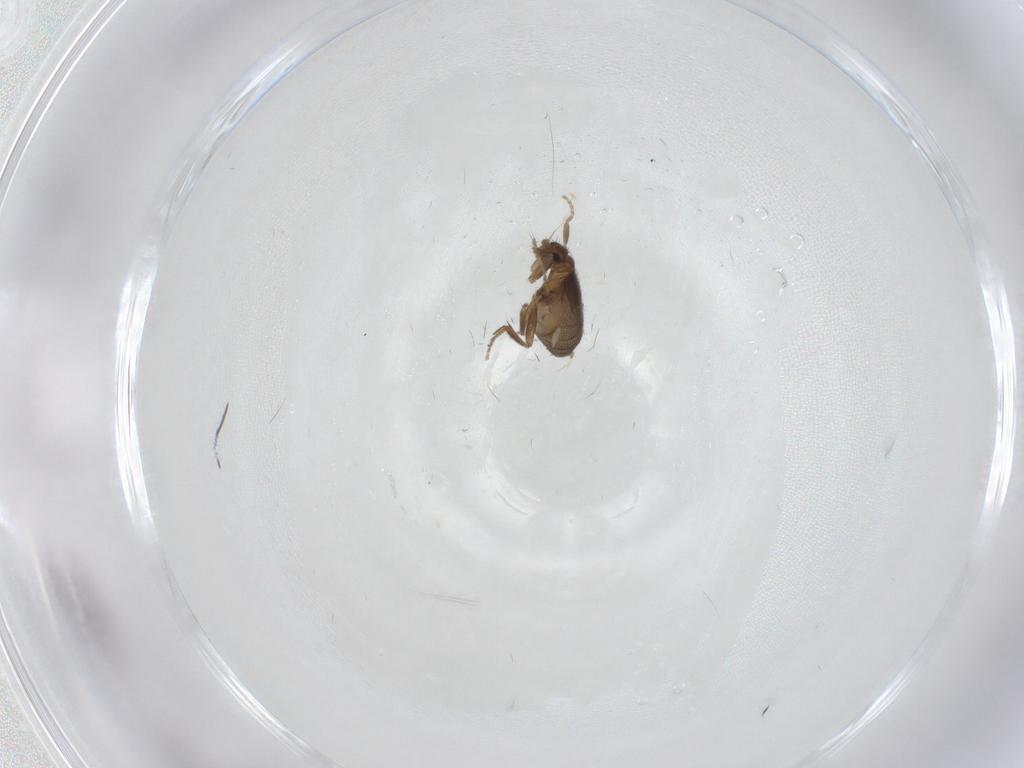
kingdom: Animalia
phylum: Arthropoda
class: Insecta
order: Diptera
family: Phoridae
